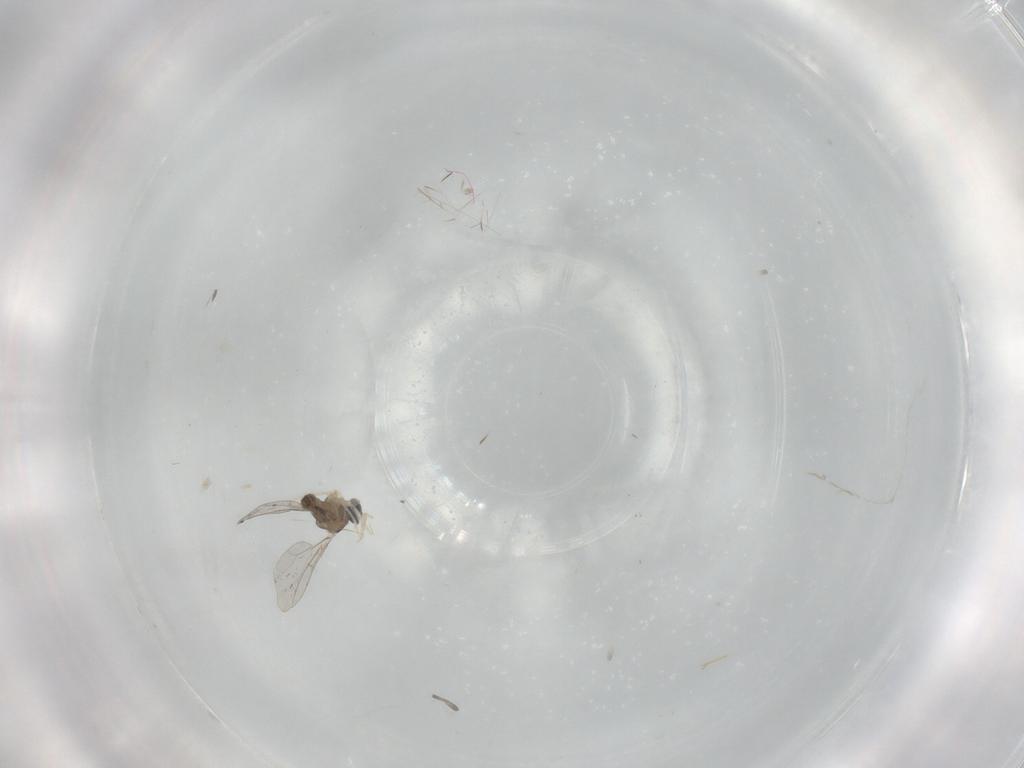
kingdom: Animalia
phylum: Arthropoda
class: Insecta
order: Diptera
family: Cecidomyiidae
